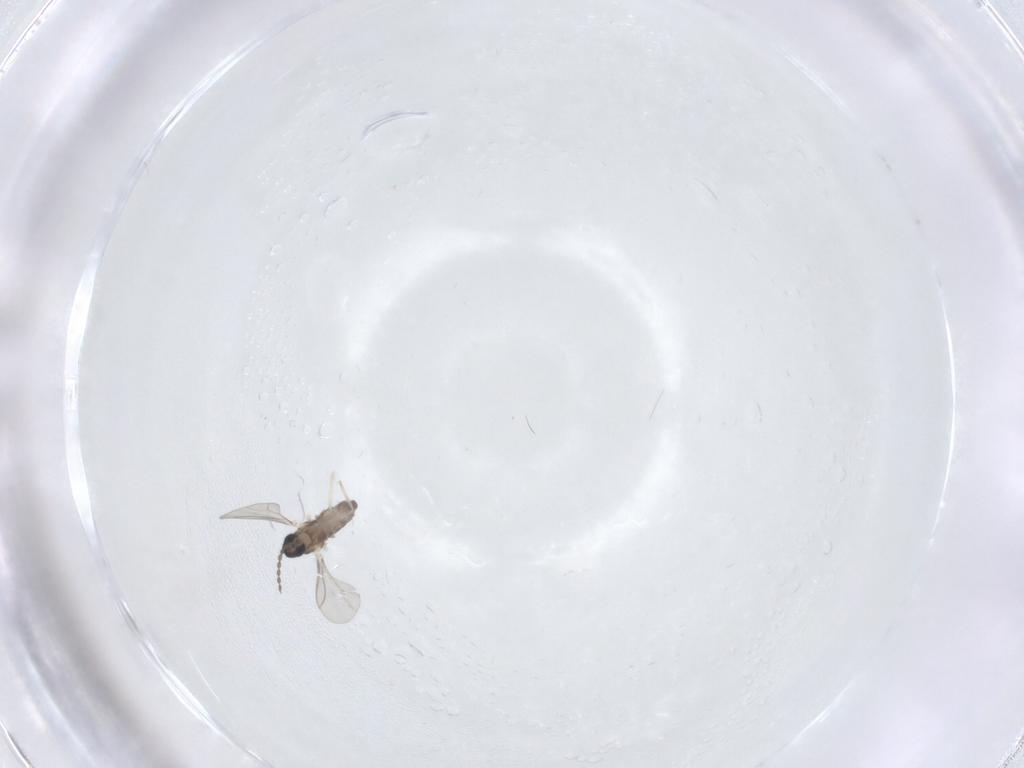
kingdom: Animalia
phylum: Arthropoda
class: Insecta
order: Diptera
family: Cecidomyiidae
